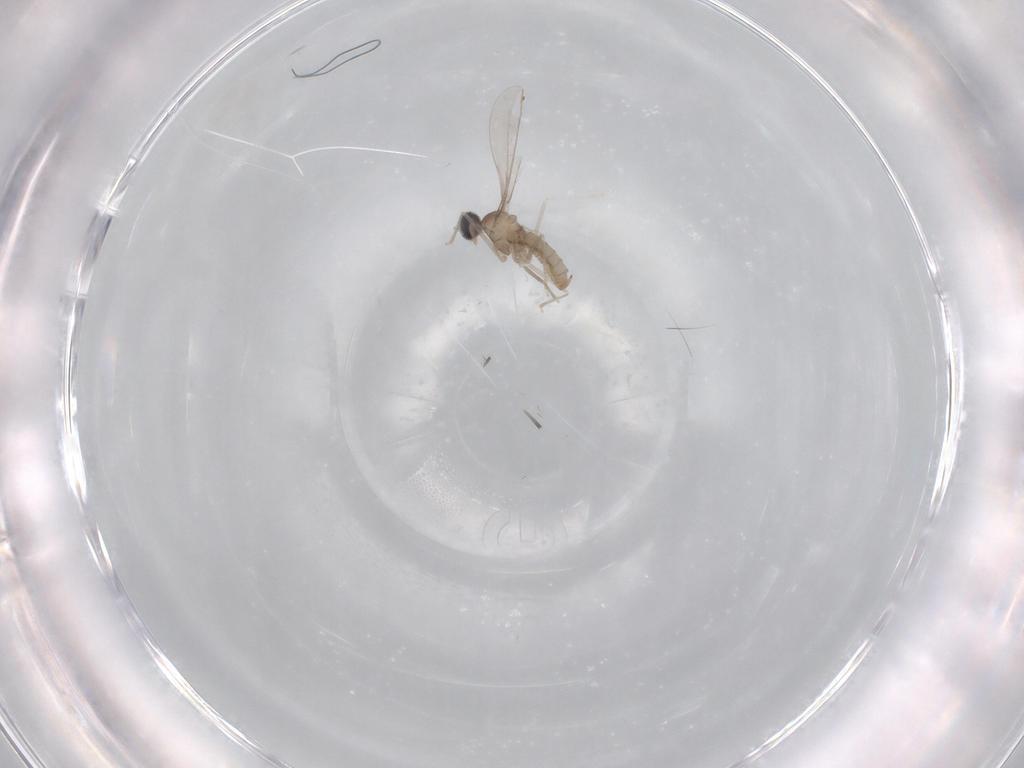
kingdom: Animalia
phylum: Arthropoda
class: Insecta
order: Diptera
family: Cecidomyiidae
